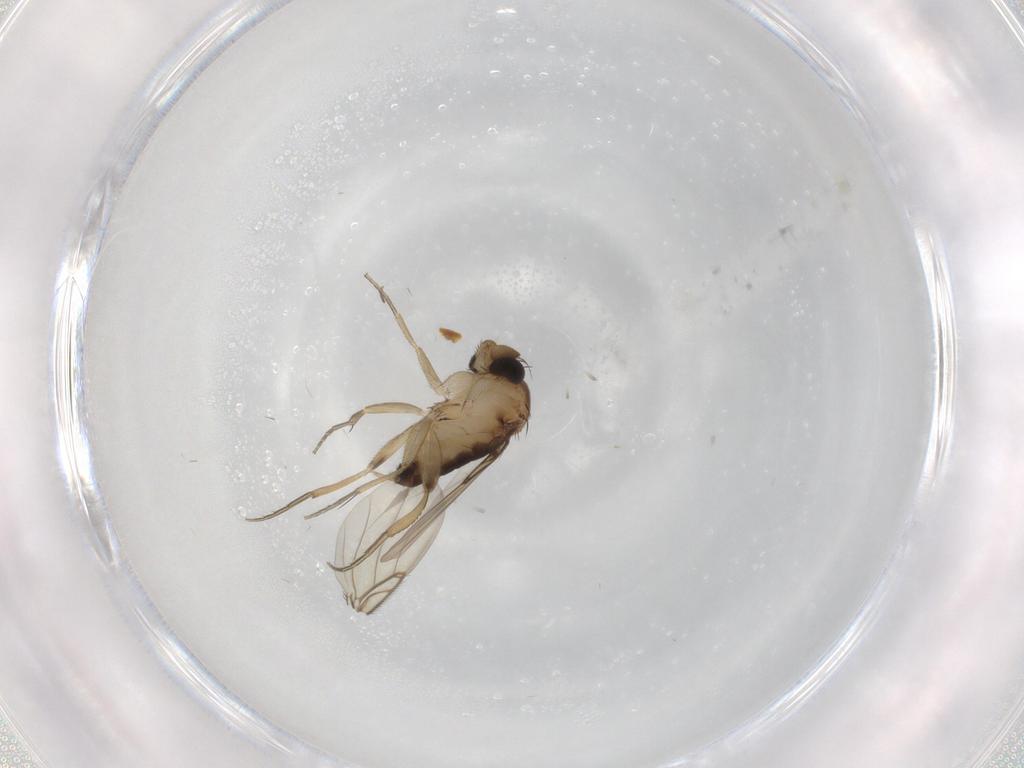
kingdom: Animalia
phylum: Arthropoda
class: Insecta
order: Diptera
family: Phoridae
